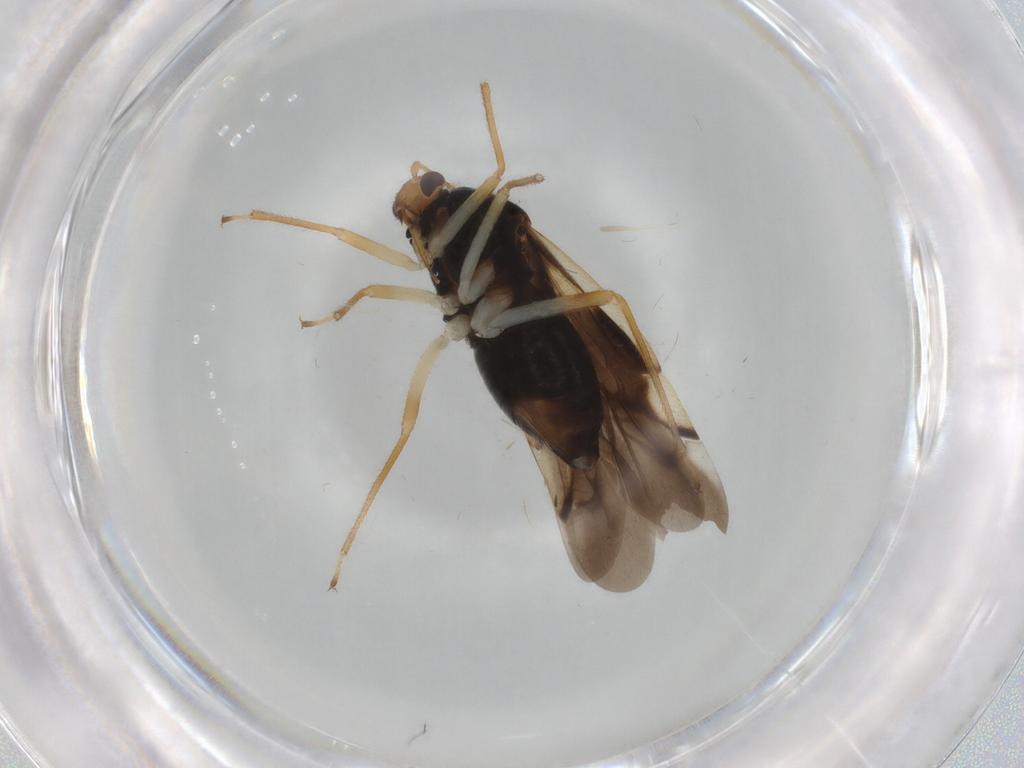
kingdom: Animalia
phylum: Arthropoda
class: Insecta
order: Hemiptera
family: Miridae
